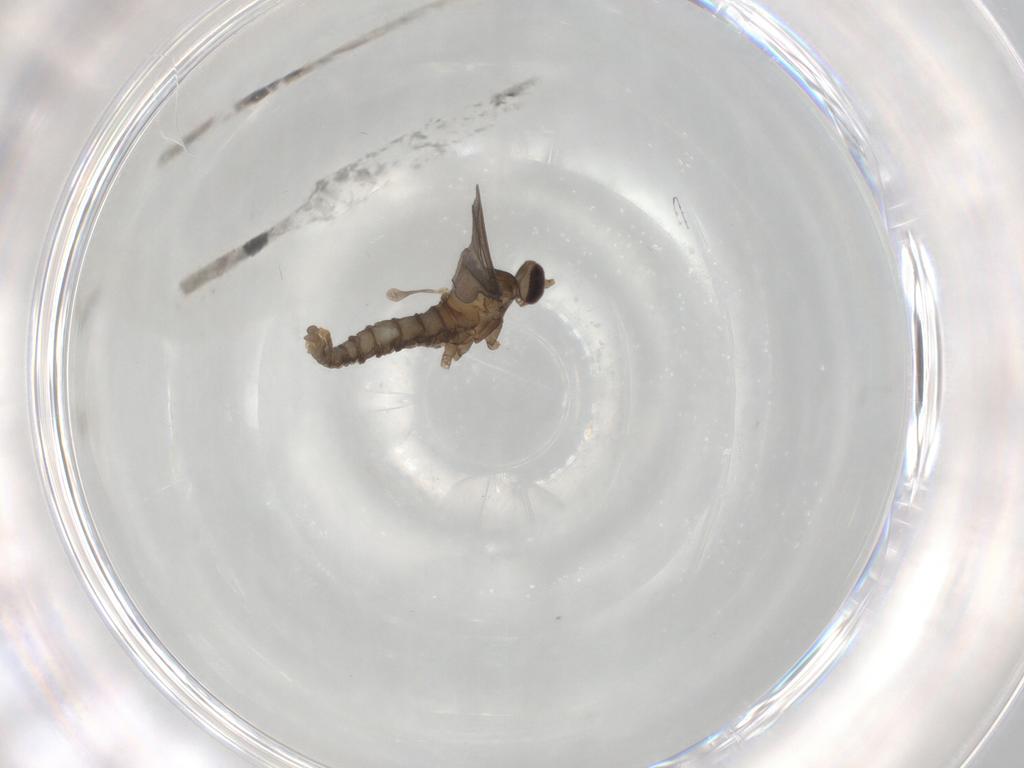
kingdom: Animalia
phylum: Arthropoda
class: Insecta
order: Diptera
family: Cecidomyiidae
